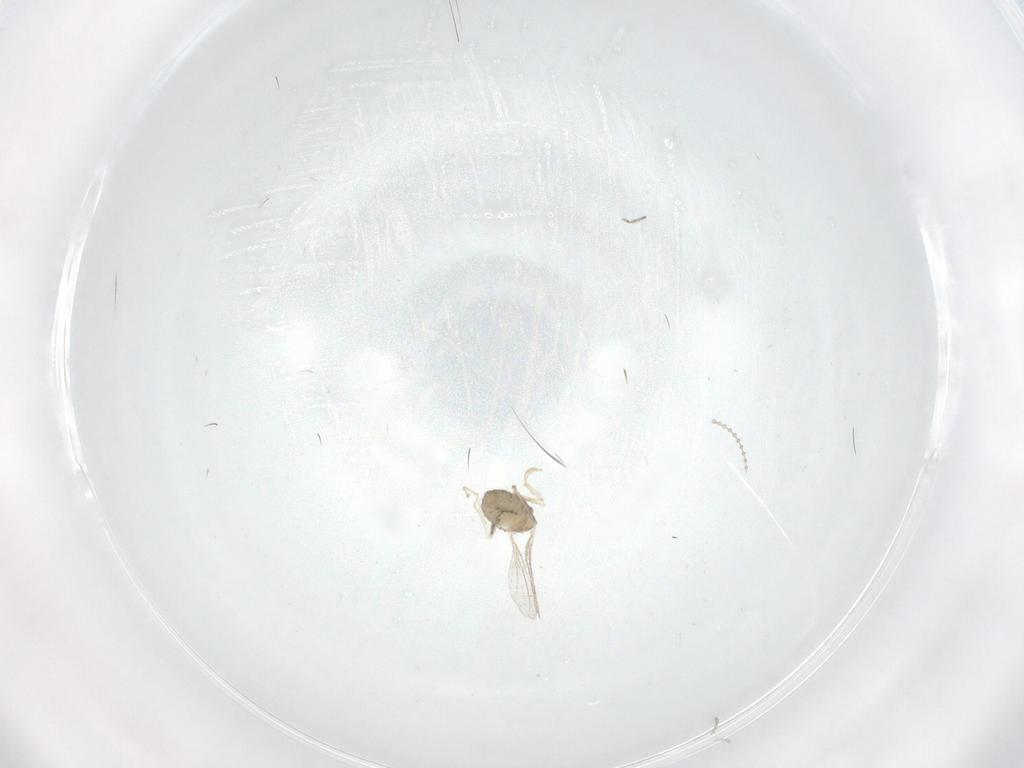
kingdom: Animalia
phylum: Arthropoda
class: Insecta
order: Diptera
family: Cecidomyiidae
